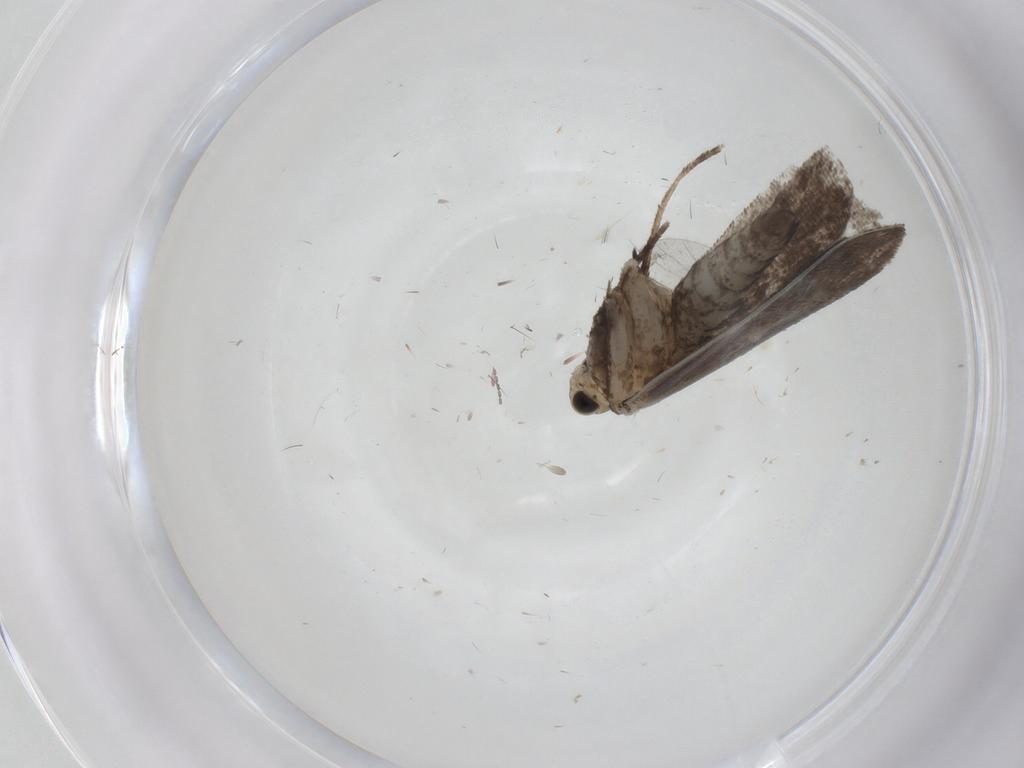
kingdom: Animalia
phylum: Arthropoda
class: Insecta
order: Lepidoptera
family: Nymphalidae
